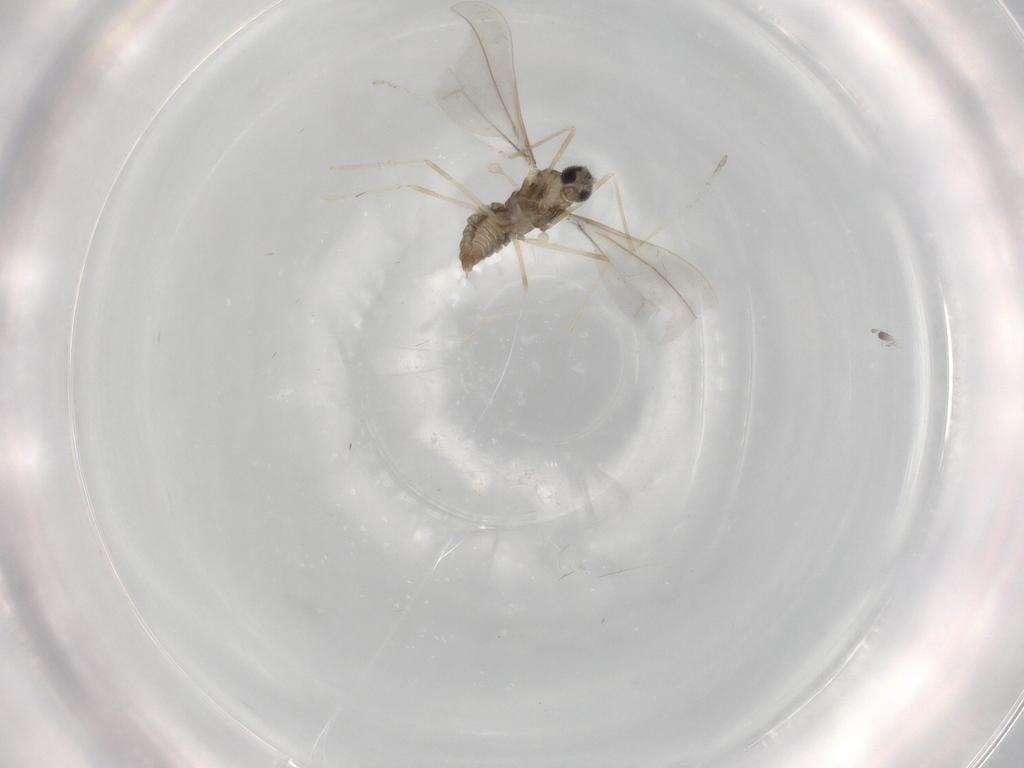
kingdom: Animalia
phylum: Arthropoda
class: Insecta
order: Diptera
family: Cecidomyiidae
